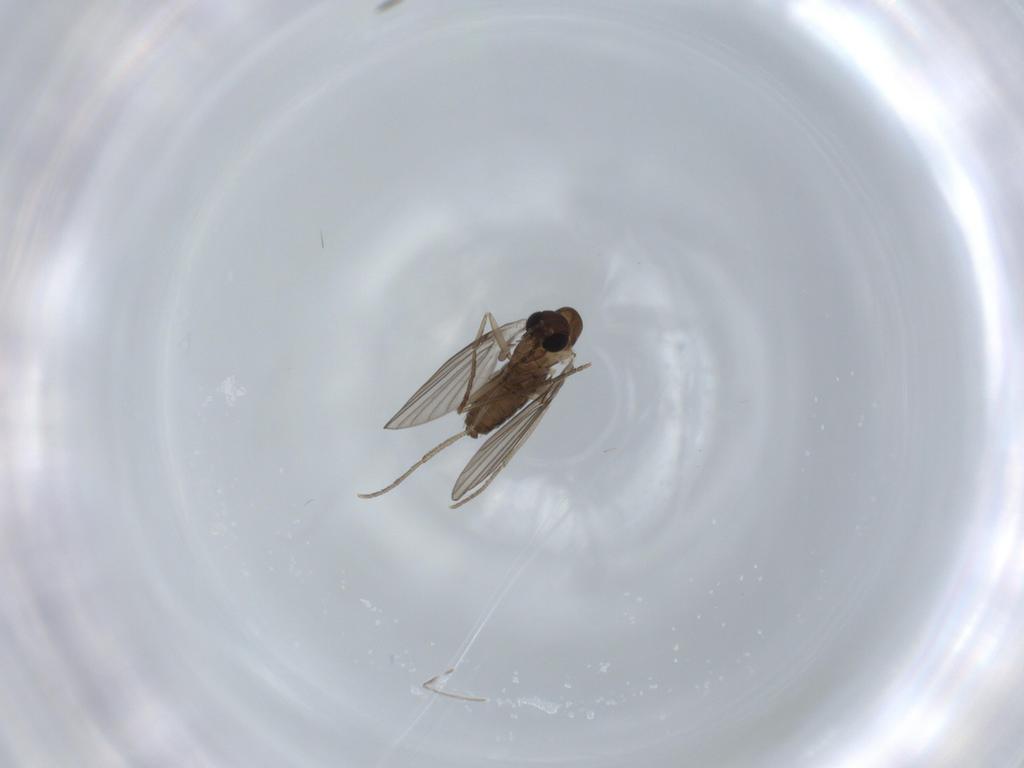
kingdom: Animalia
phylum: Arthropoda
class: Insecta
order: Diptera
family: Psychodidae
